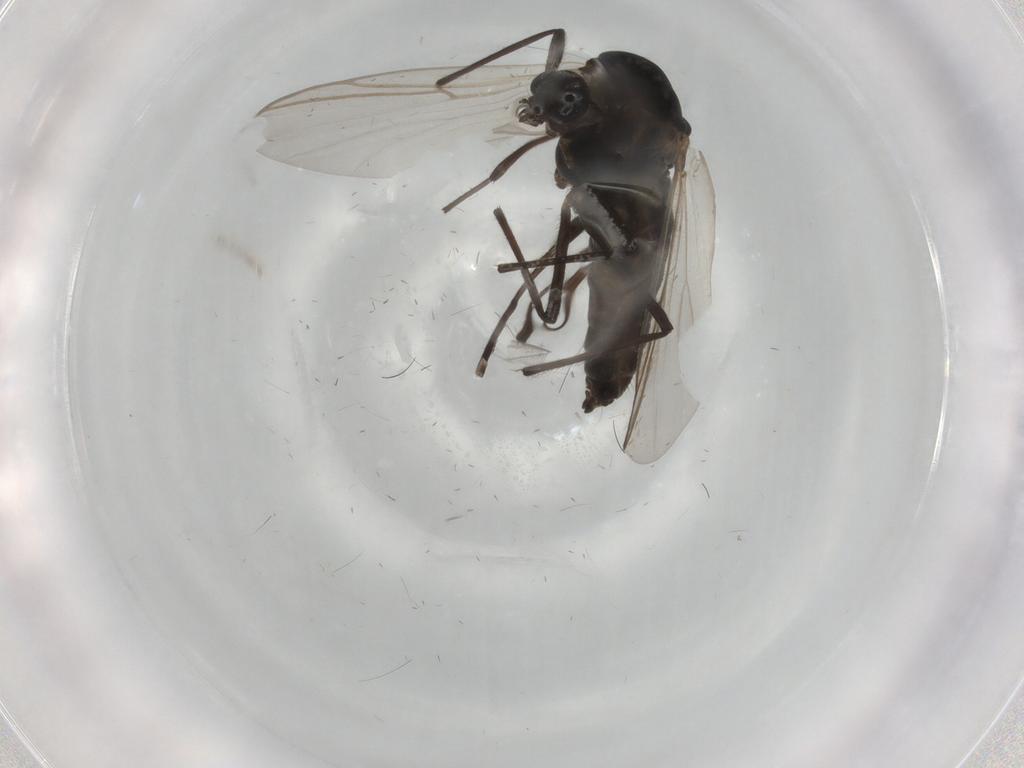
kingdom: Animalia
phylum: Arthropoda
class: Insecta
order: Diptera
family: Chironomidae
